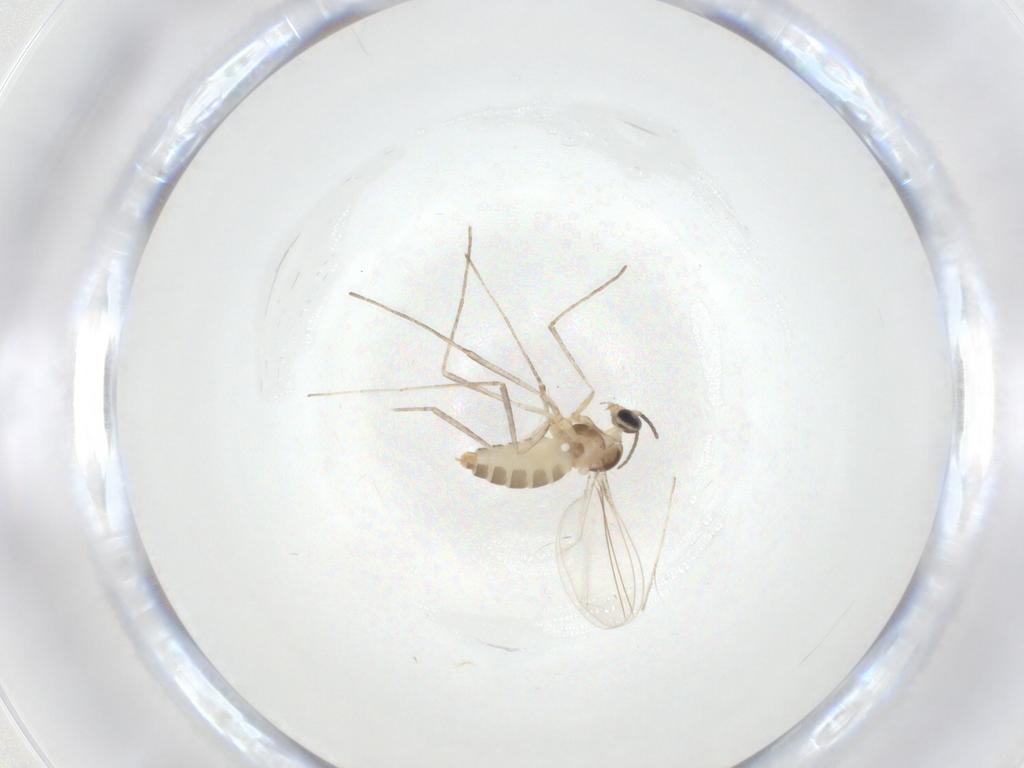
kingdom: Animalia
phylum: Arthropoda
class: Insecta
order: Diptera
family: Cecidomyiidae
